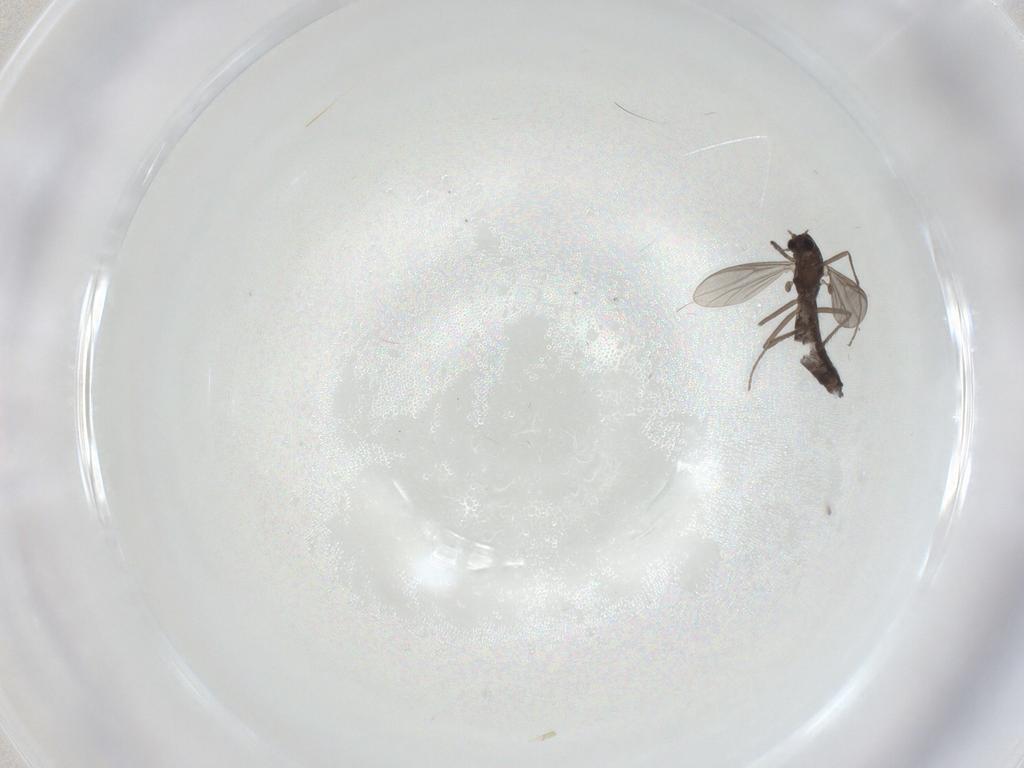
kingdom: Animalia
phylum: Arthropoda
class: Insecta
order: Diptera
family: Chironomidae
